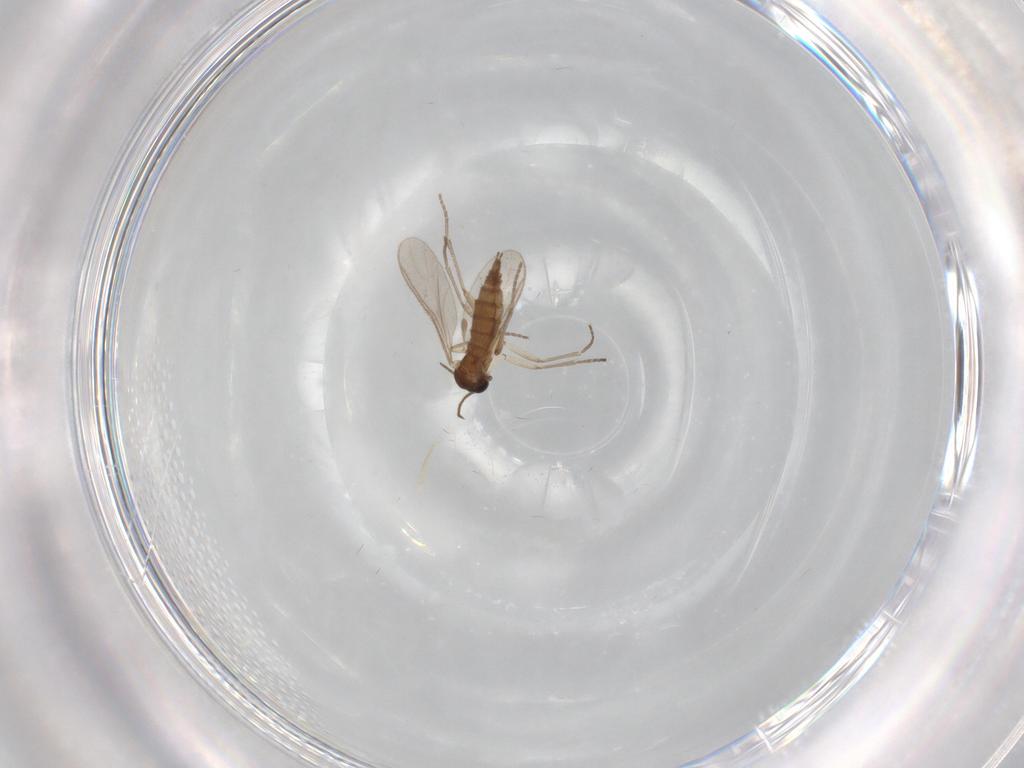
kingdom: Animalia
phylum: Arthropoda
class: Insecta
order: Diptera
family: Sciaridae
